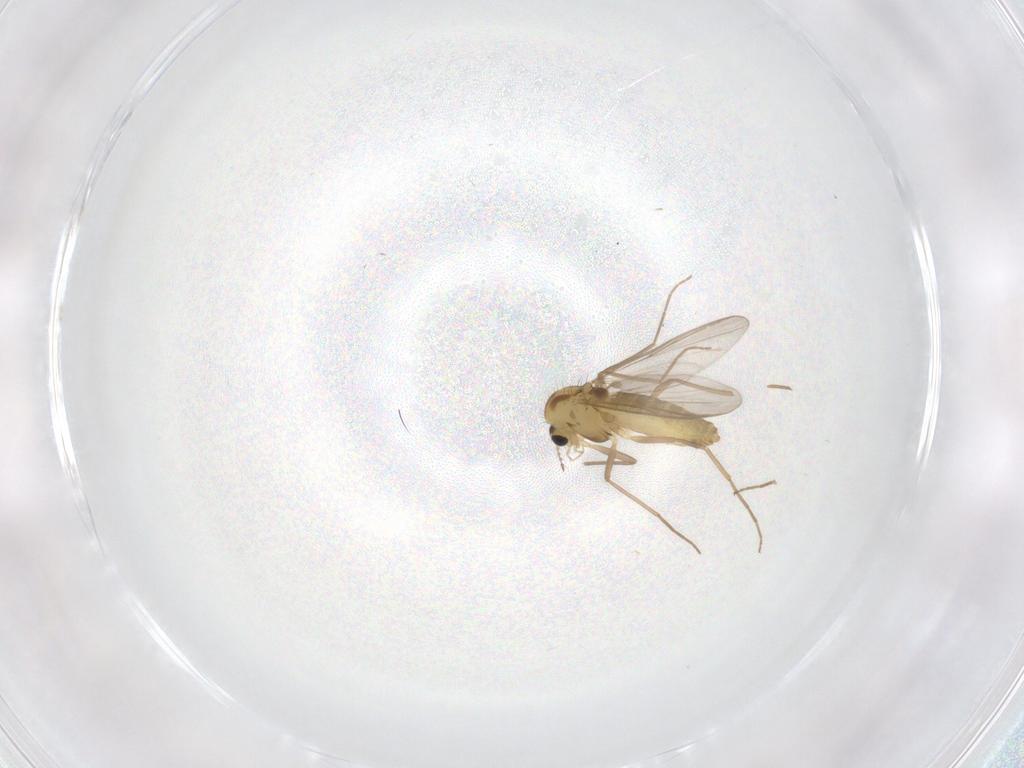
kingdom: Animalia
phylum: Arthropoda
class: Insecta
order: Diptera
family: Chironomidae
